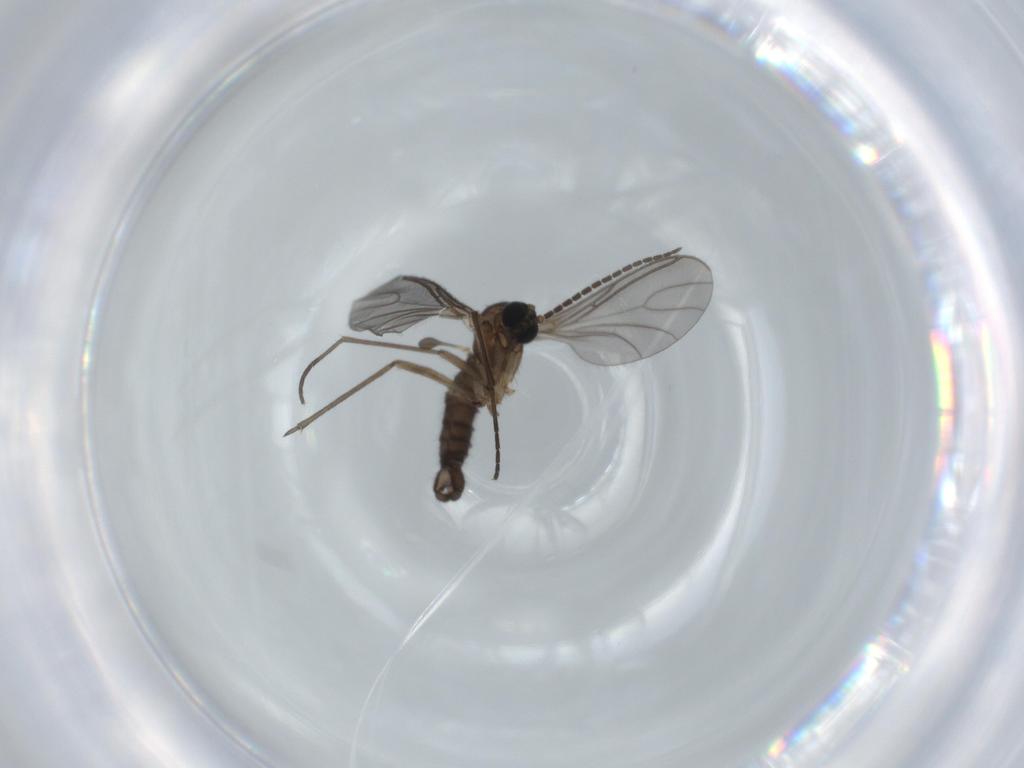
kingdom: Animalia
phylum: Arthropoda
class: Insecta
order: Diptera
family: Sciaridae
